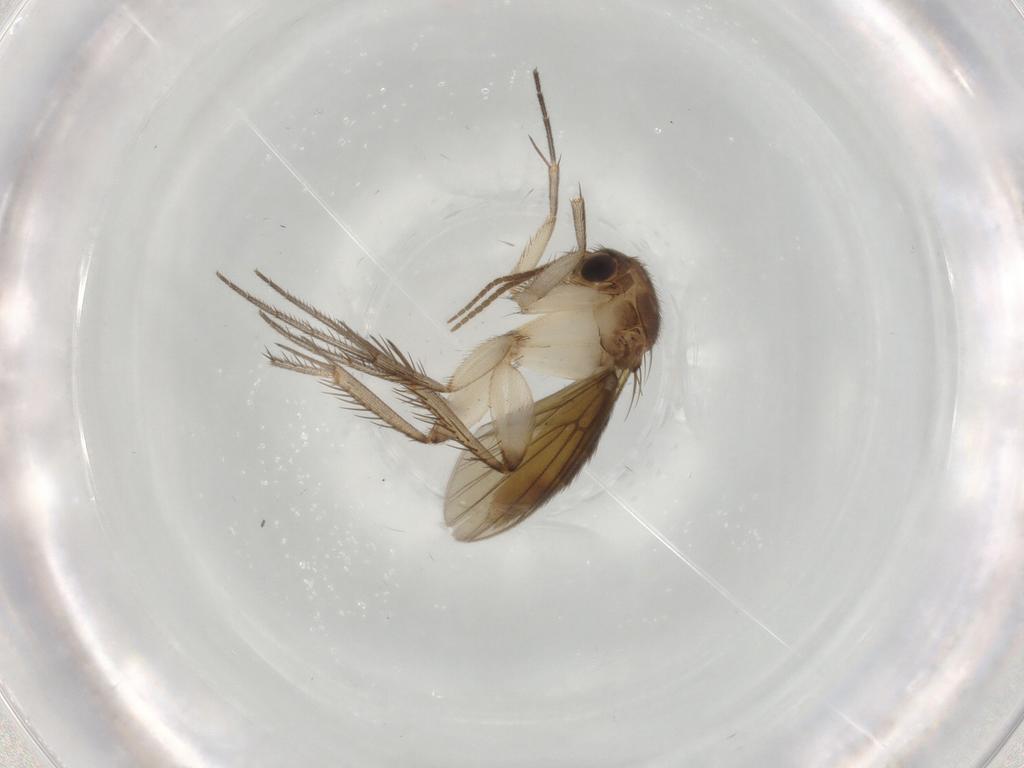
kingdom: Animalia
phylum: Arthropoda
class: Insecta
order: Diptera
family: Mycetophilidae
